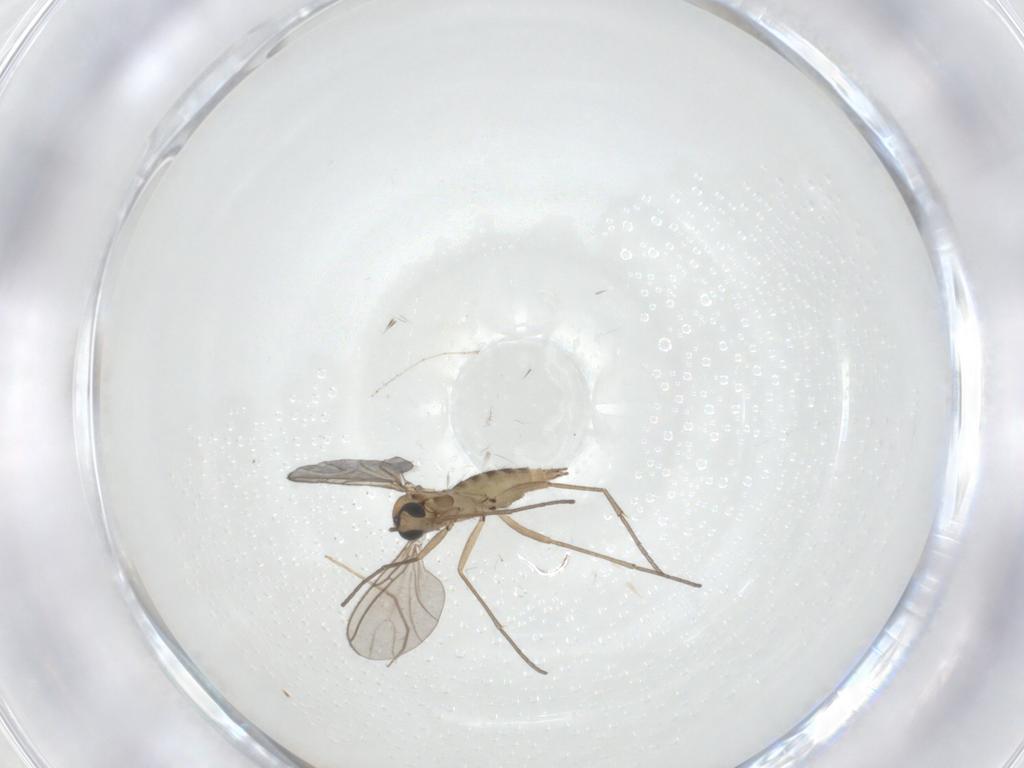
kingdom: Animalia
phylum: Arthropoda
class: Insecta
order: Diptera
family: Sciaridae
